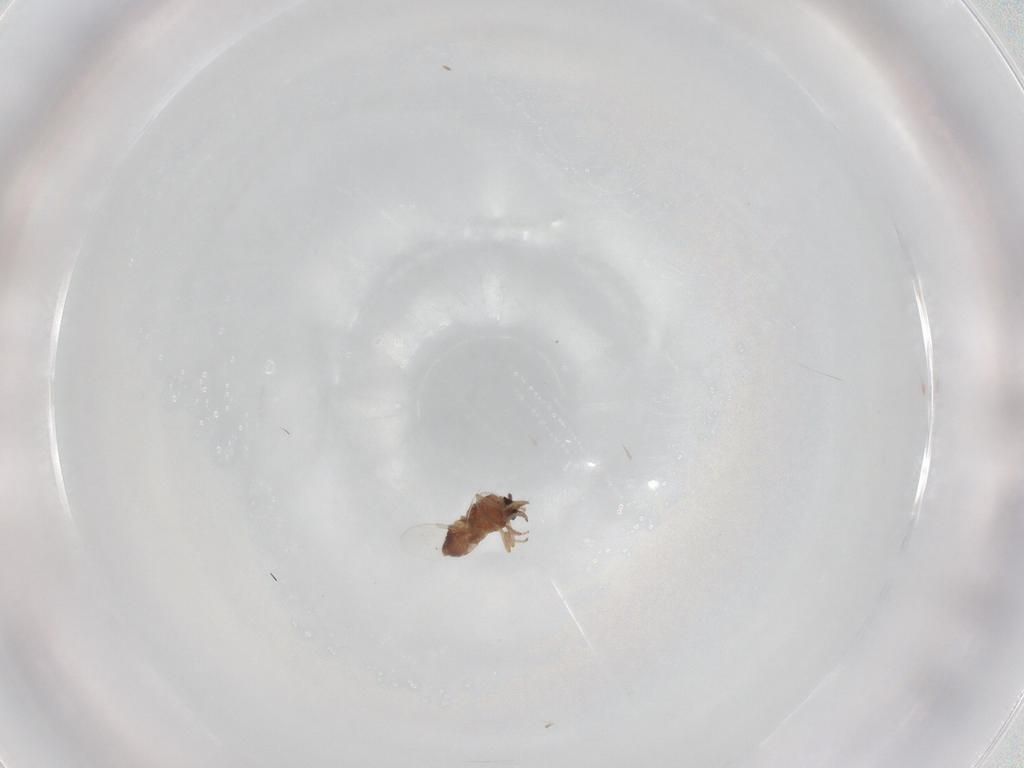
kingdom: Animalia
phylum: Arthropoda
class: Insecta
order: Diptera
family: Ceratopogonidae
